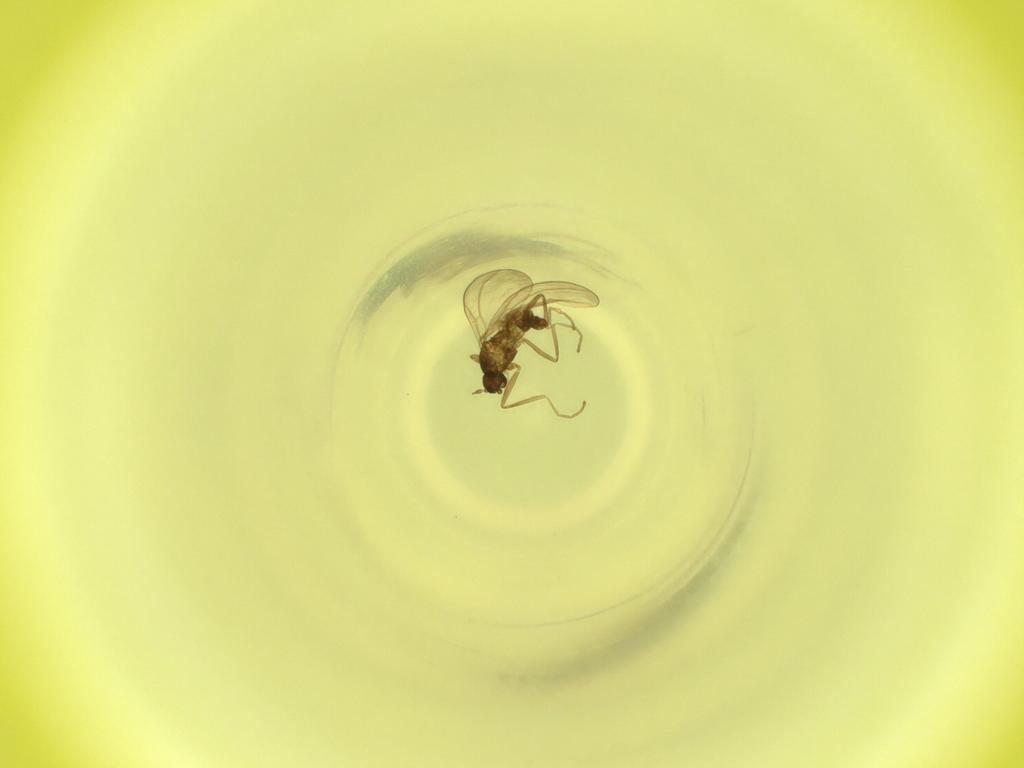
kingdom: Animalia
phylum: Arthropoda
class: Insecta
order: Diptera
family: Cecidomyiidae
